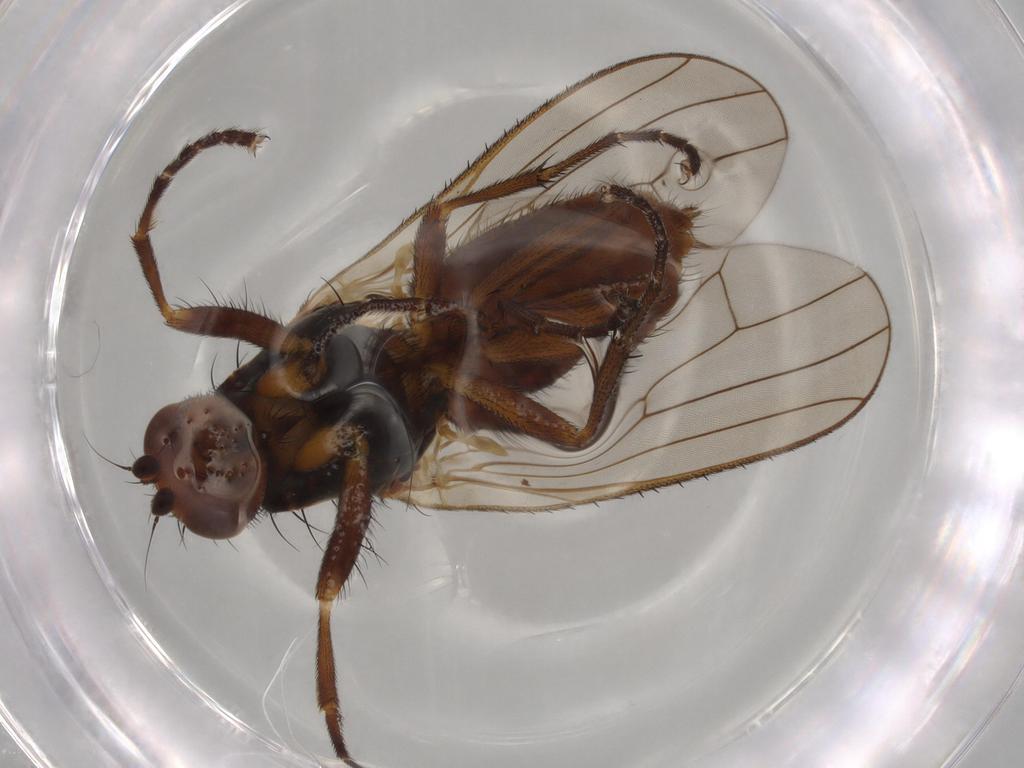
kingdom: Animalia
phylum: Arthropoda
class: Insecta
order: Diptera
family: Heleomyzidae
